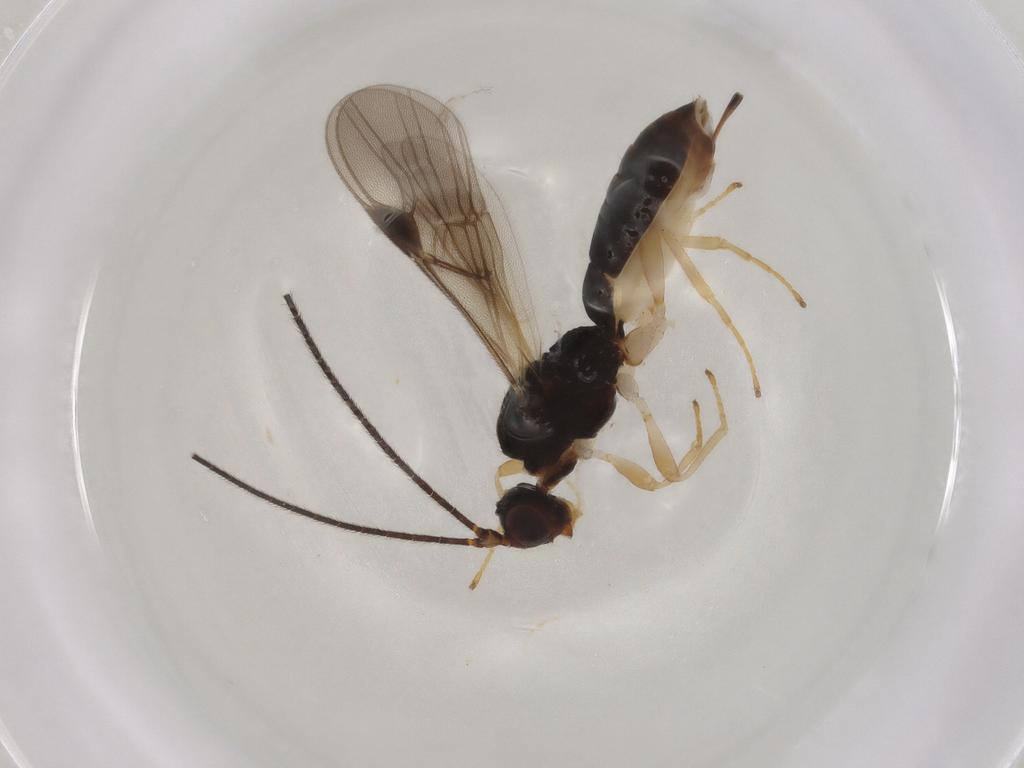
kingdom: Animalia
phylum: Arthropoda
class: Insecta
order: Hymenoptera
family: Braconidae
